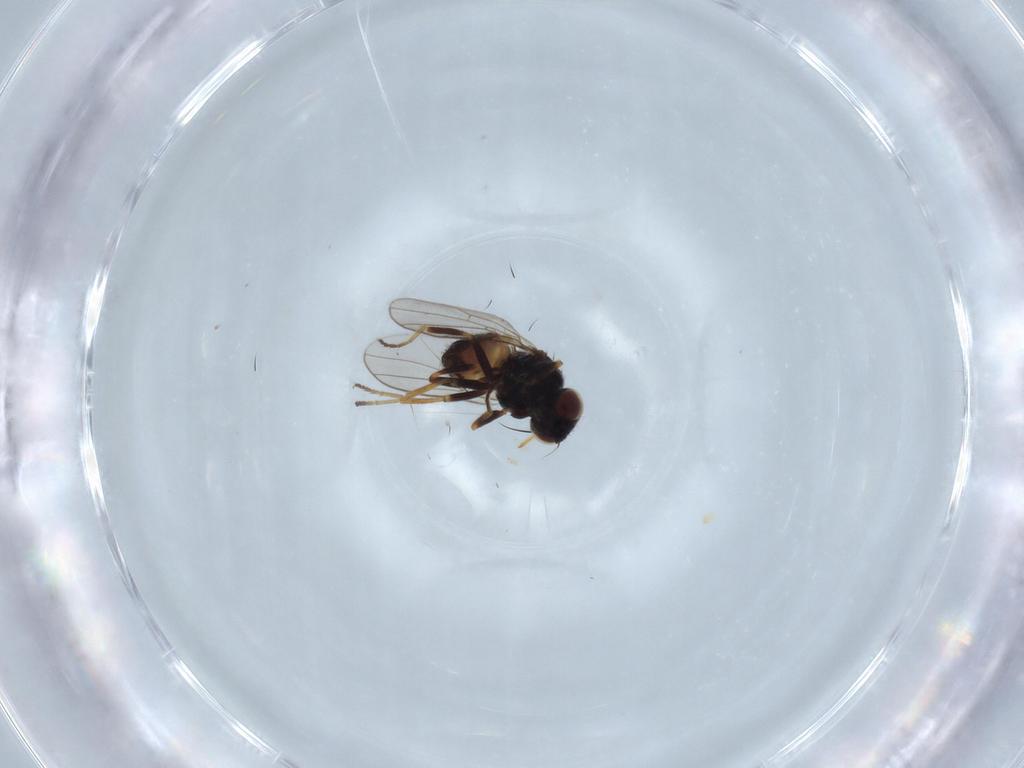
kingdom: Animalia
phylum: Arthropoda
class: Insecta
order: Diptera
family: Chloropidae
